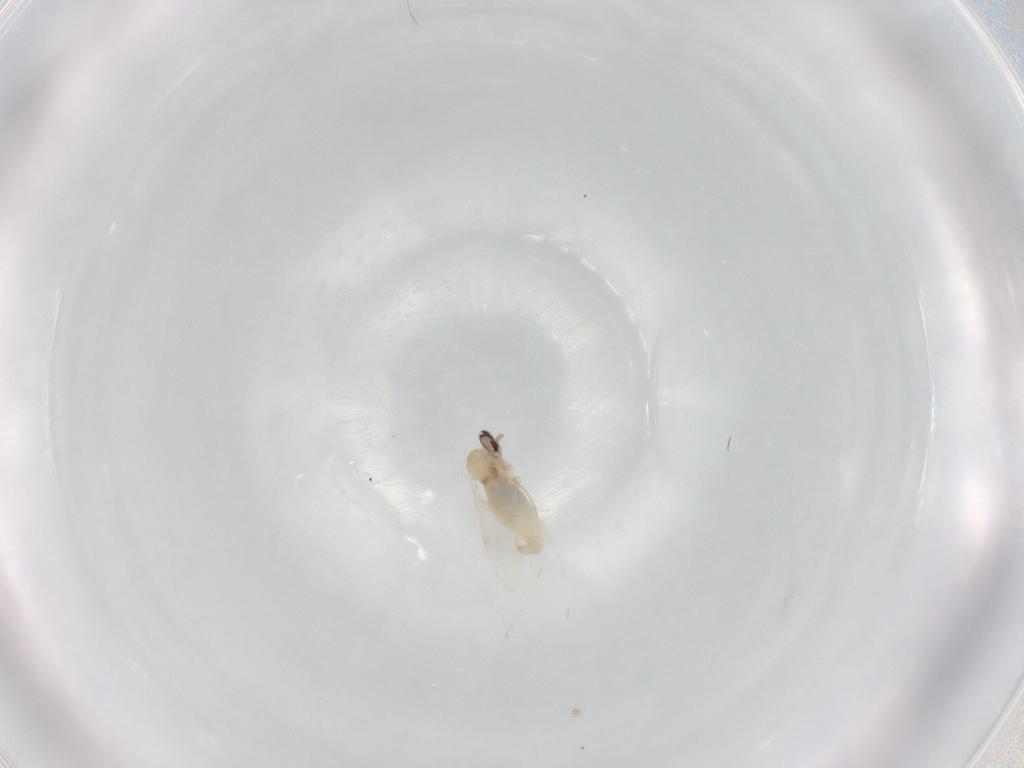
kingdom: Animalia
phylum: Arthropoda
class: Insecta
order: Diptera
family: Cecidomyiidae
